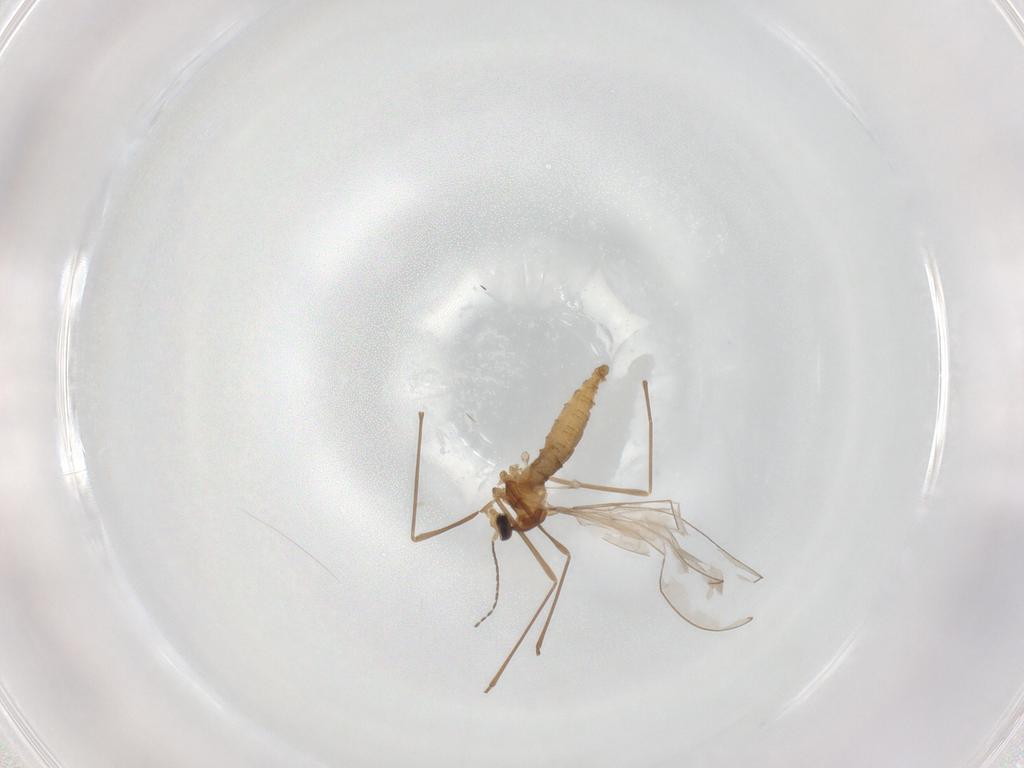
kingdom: Animalia
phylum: Arthropoda
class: Insecta
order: Diptera
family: Cecidomyiidae
